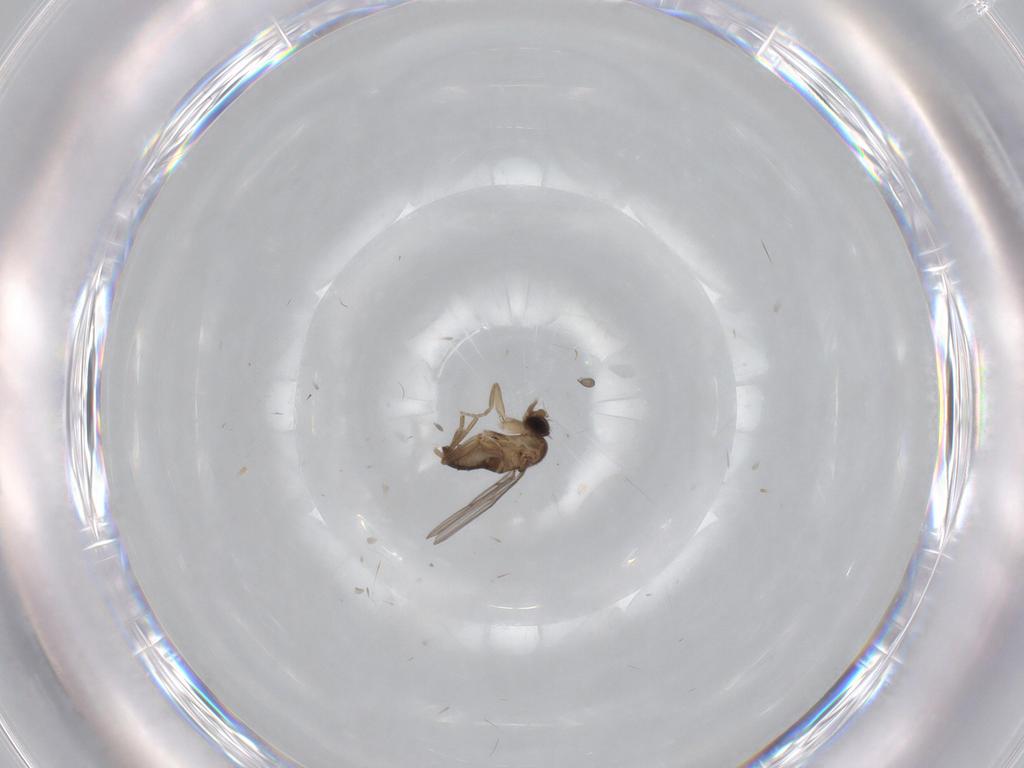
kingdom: Animalia
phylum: Arthropoda
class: Insecta
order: Diptera
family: Phoridae
